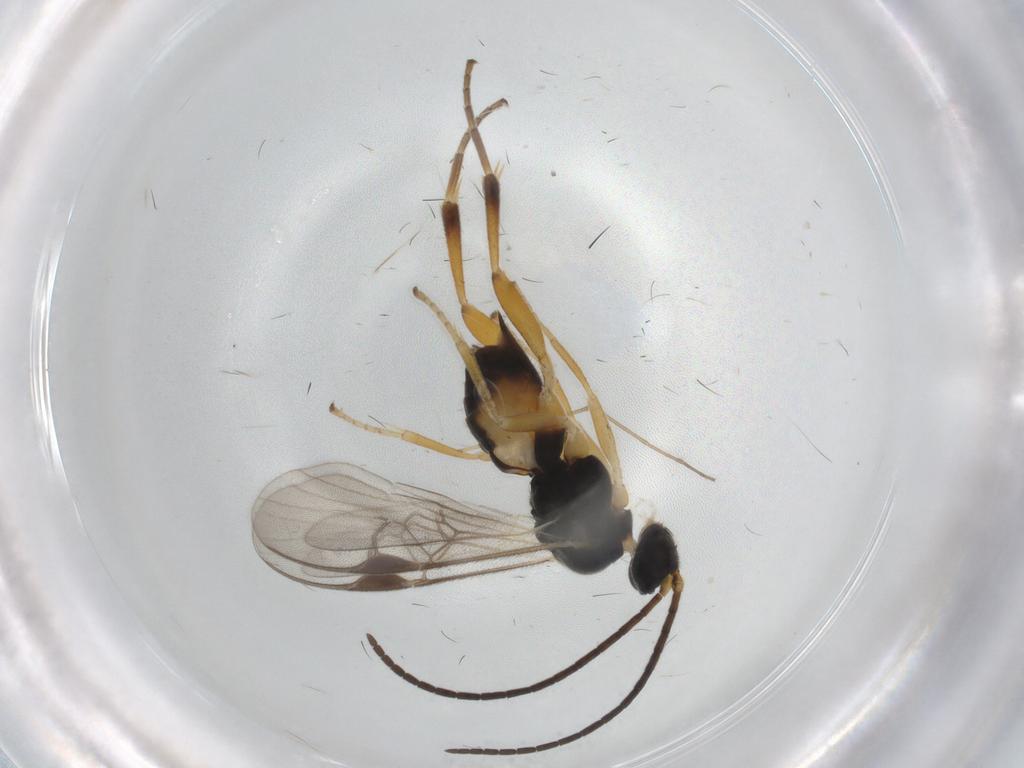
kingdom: Animalia
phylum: Arthropoda
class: Insecta
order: Hymenoptera
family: Braconidae
